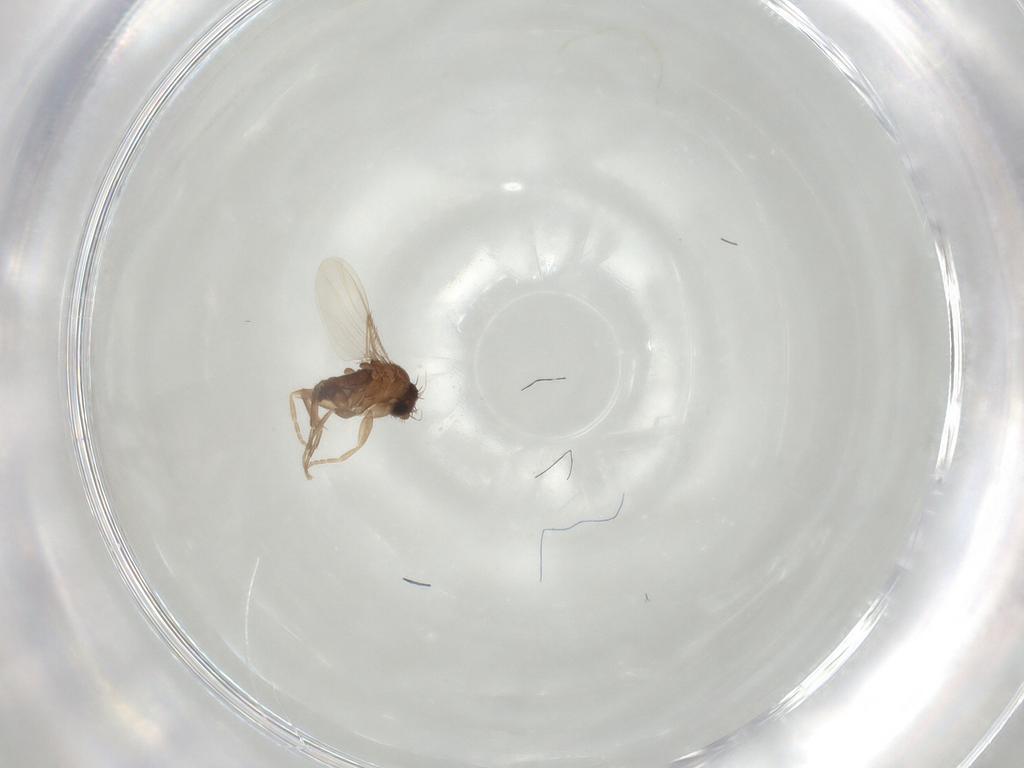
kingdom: Animalia
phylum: Arthropoda
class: Insecta
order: Diptera
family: Phoridae
